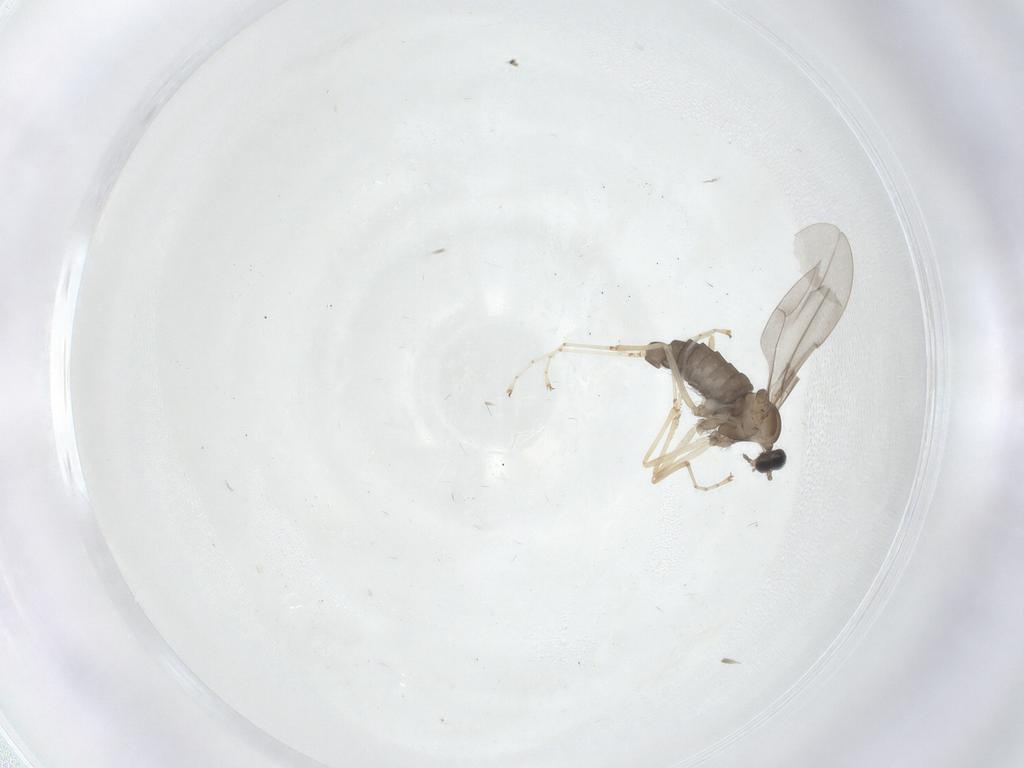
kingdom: Animalia
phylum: Arthropoda
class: Insecta
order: Diptera
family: Cecidomyiidae
